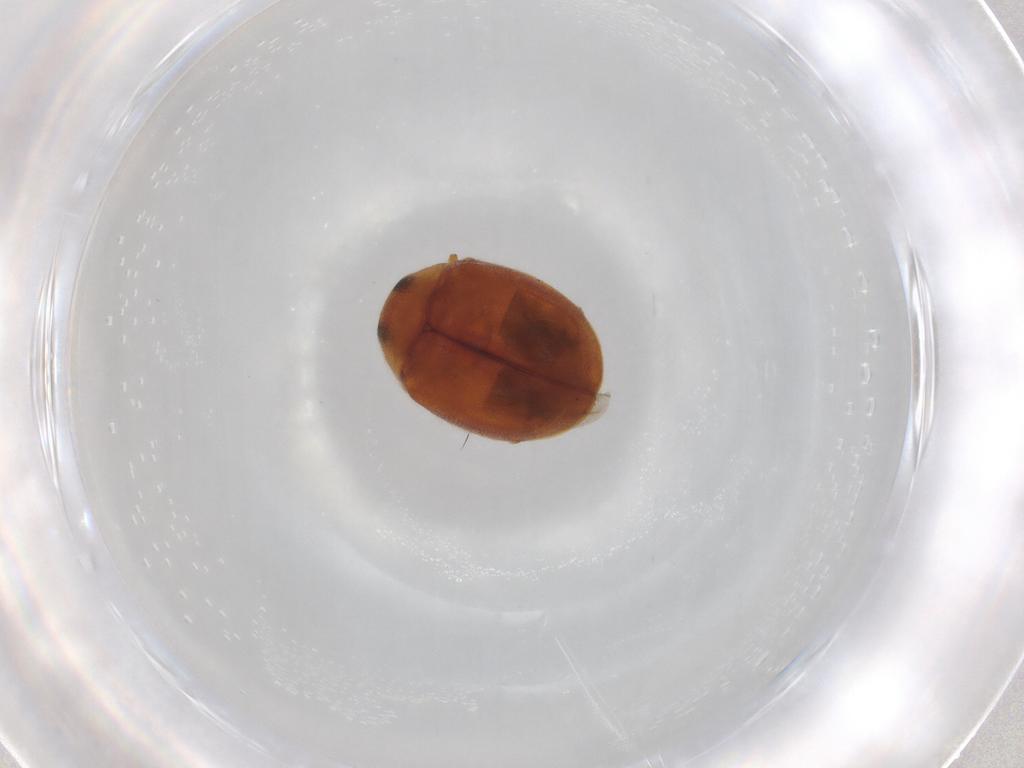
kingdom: Animalia
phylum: Arthropoda
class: Insecta
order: Coleoptera
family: Coccinellidae
